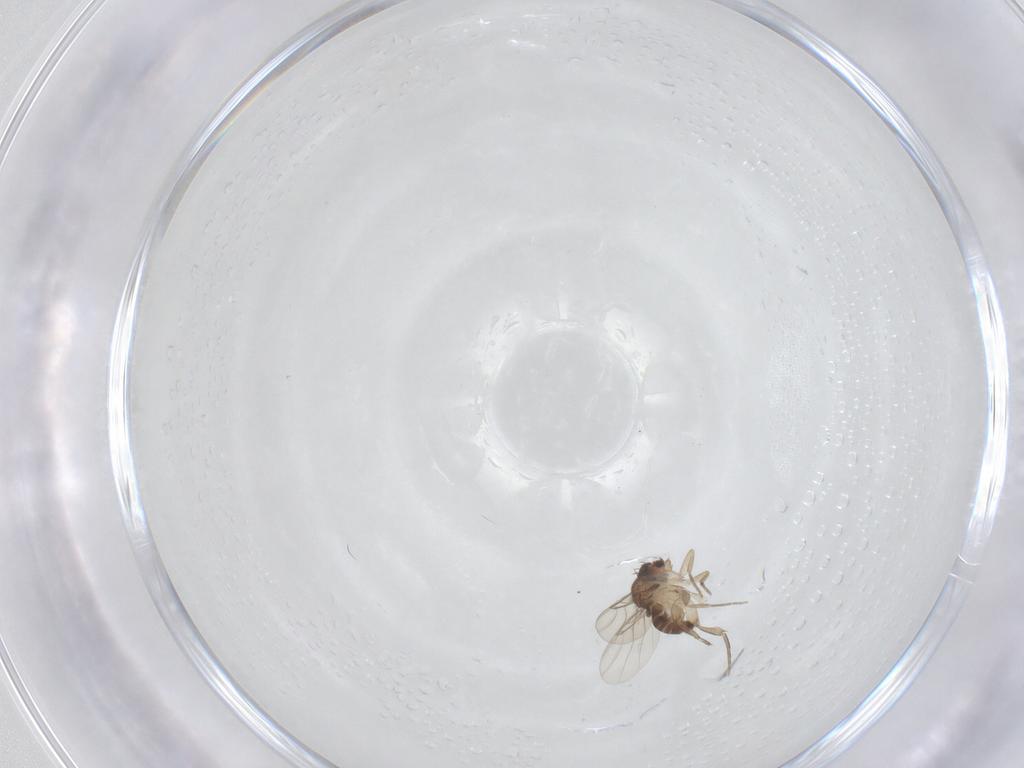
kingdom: Animalia
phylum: Arthropoda
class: Insecta
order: Diptera
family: Phoridae
